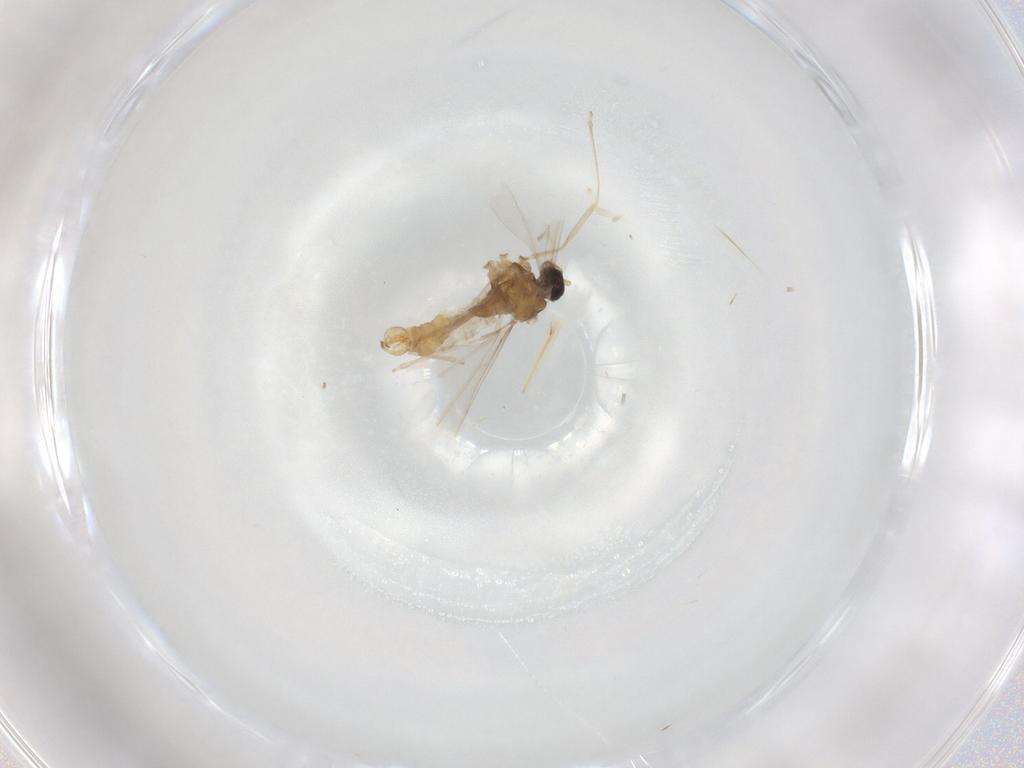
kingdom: Animalia
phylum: Arthropoda
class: Insecta
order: Diptera
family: Cecidomyiidae
